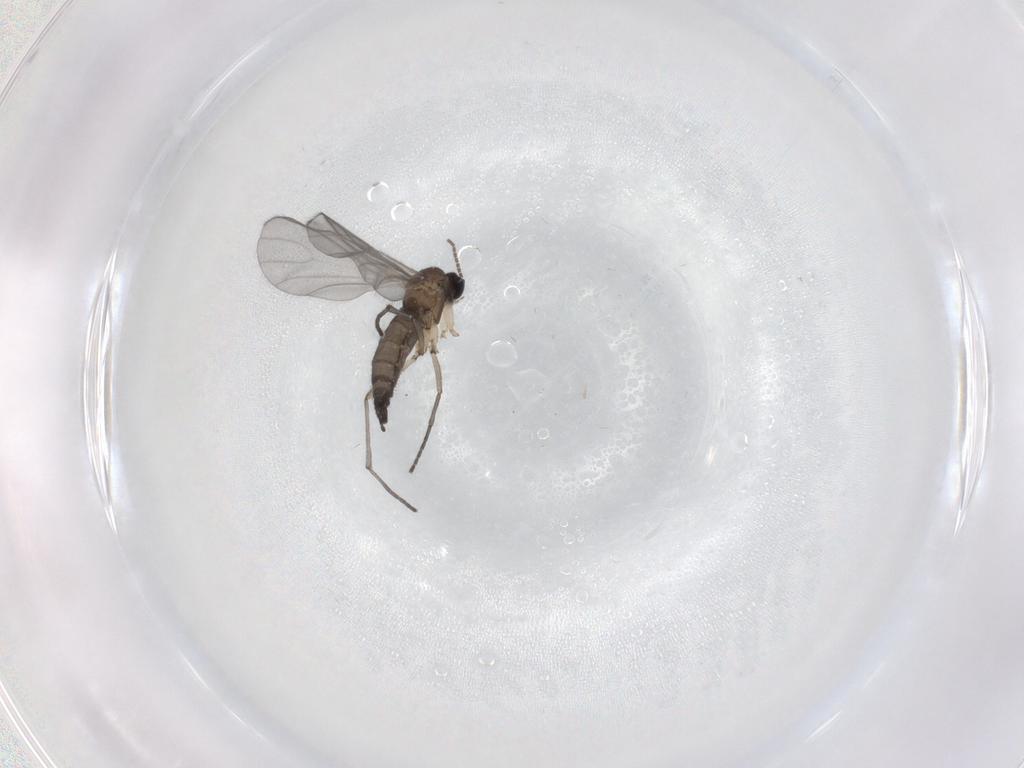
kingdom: Animalia
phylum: Arthropoda
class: Insecta
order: Diptera
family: Sciaridae
